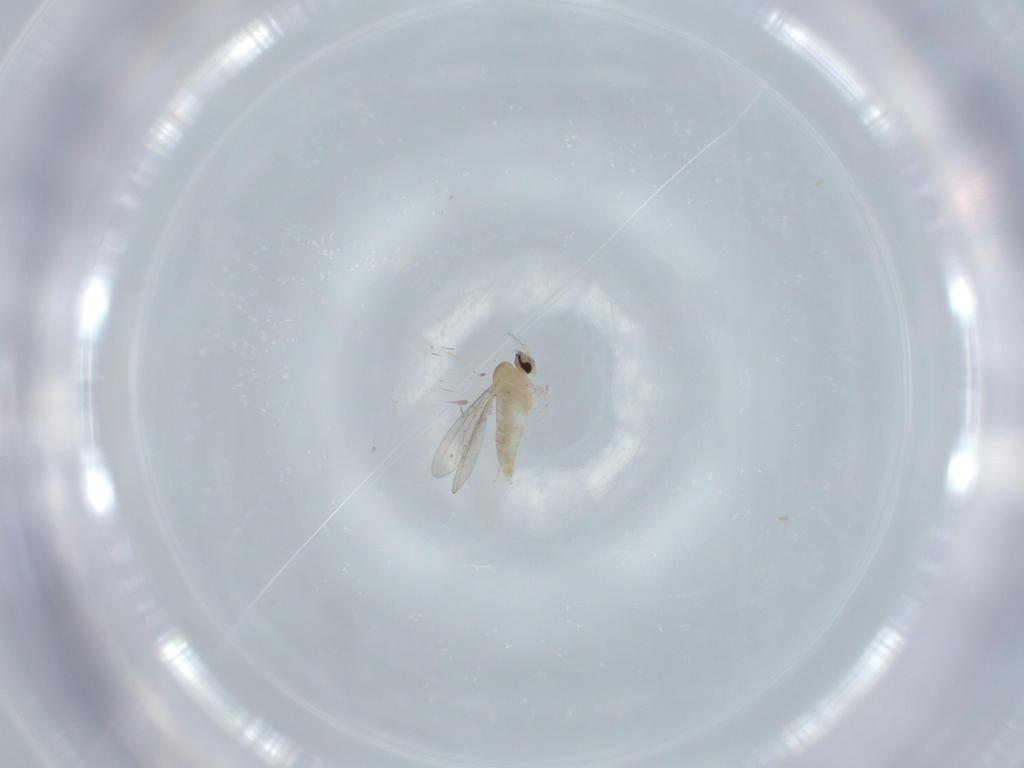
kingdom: Animalia
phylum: Arthropoda
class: Insecta
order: Diptera
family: Cecidomyiidae
